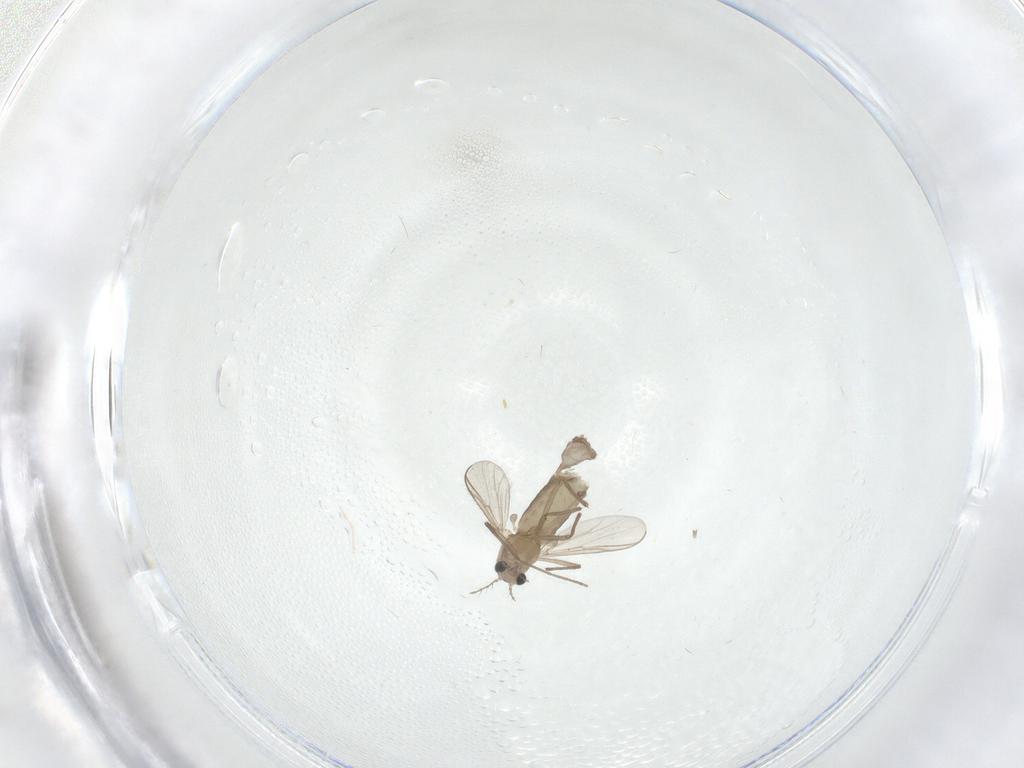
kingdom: Animalia
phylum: Arthropoda
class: Insecta
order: Diptera
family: Chironomidae
